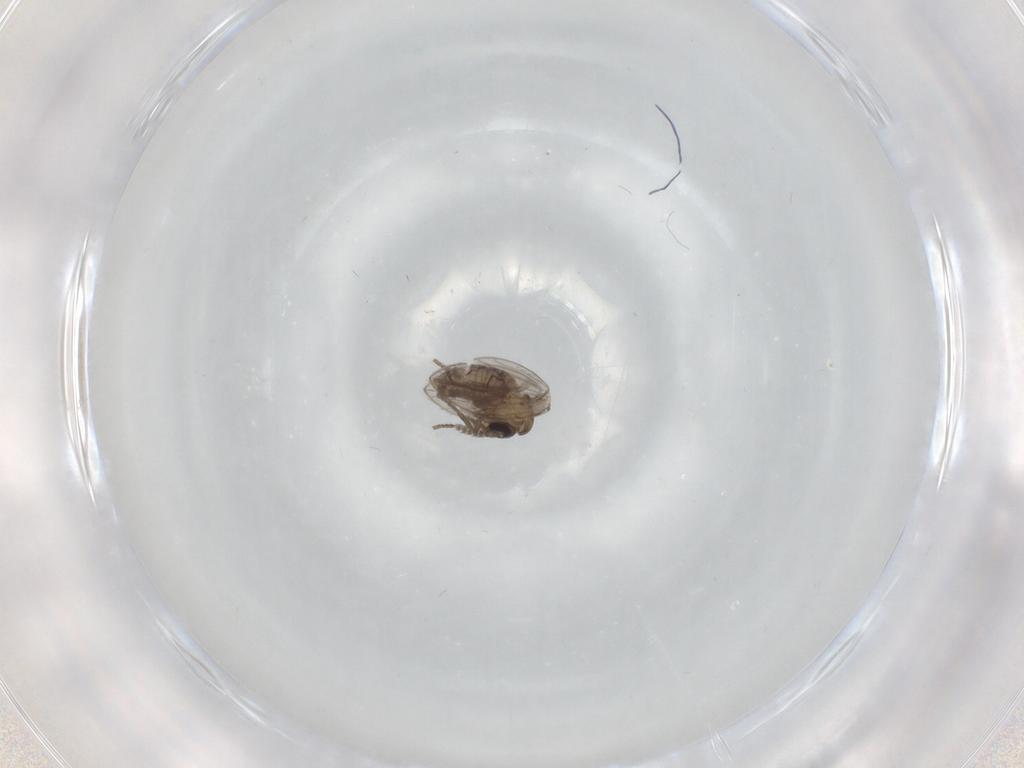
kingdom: Animalia
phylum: Arthropoda
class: Insecta
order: Diptera
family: Psychodidae
